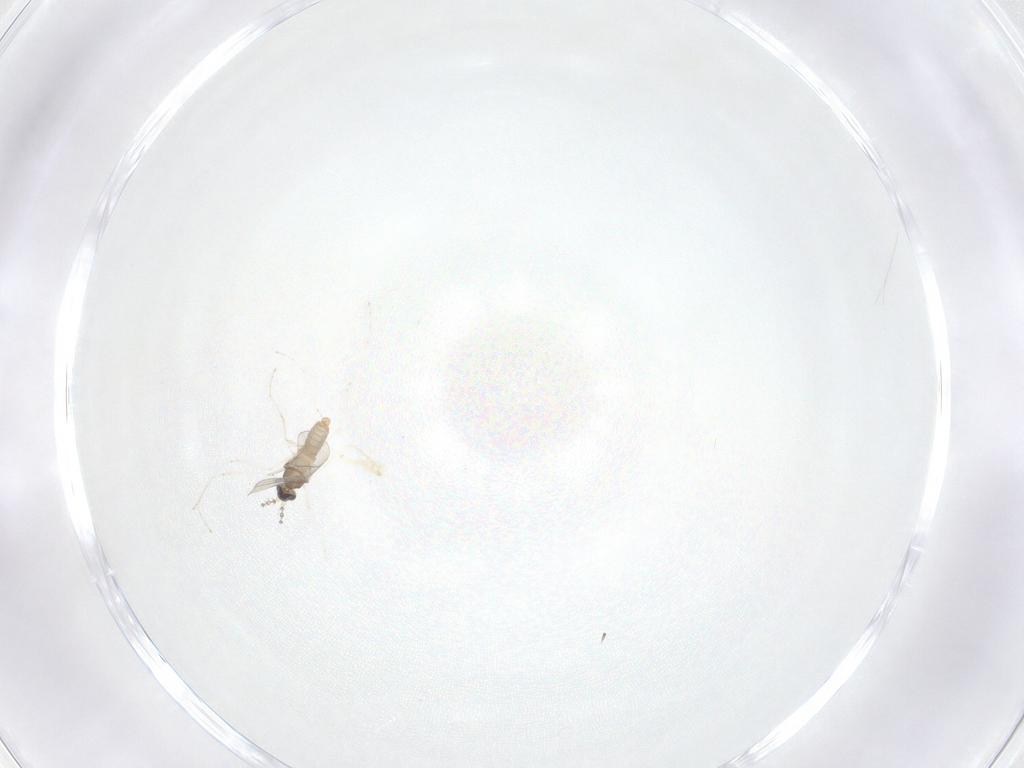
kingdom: Animalia
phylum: Arthropoda
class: Insecta
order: Diptera
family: Cecidomyiidae
